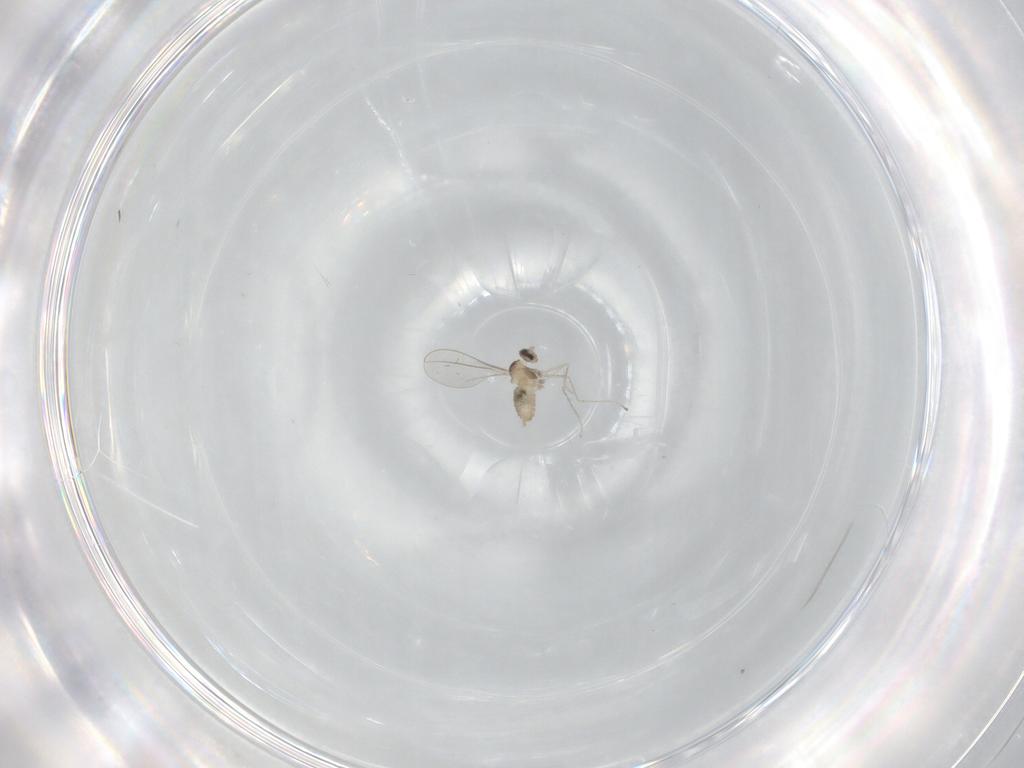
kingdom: Animalia
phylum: Arthropoda
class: Insecta
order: Diptera
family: Cecidomyiidae
